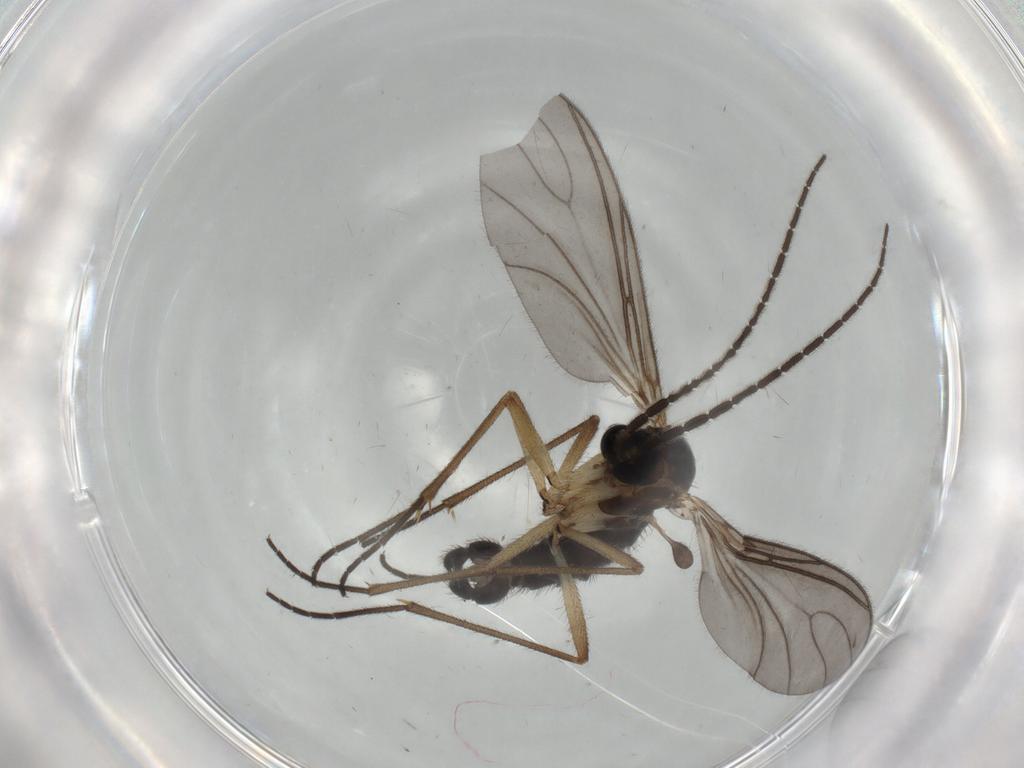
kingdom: Animalia
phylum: Arthropoda
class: Insecta
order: Diptera
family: Sciaridae
